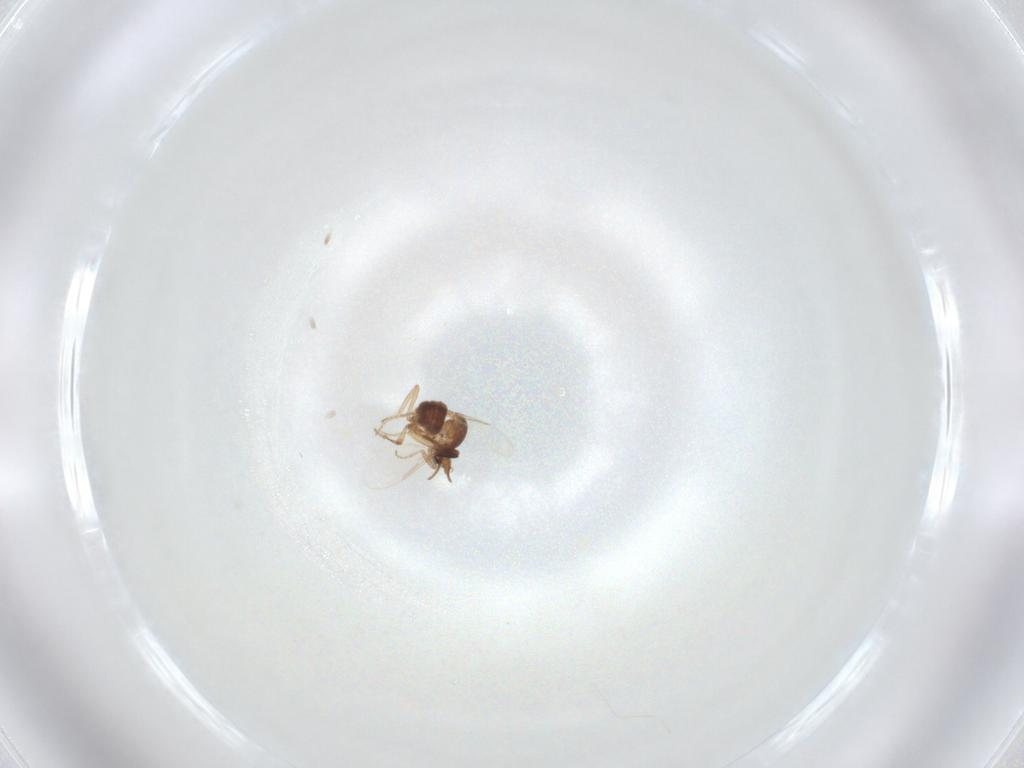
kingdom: Animalia
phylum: Arthropoda
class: Insecta
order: Diptera
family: Ceratopogonidae
